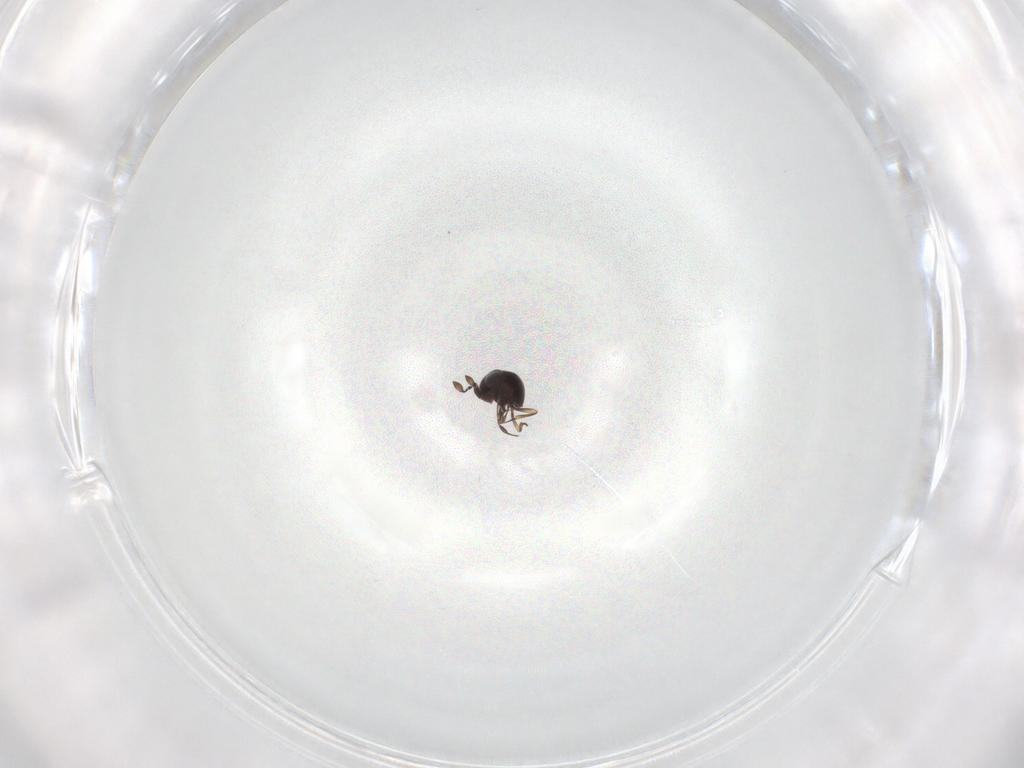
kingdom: Animalia
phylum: Arthropoda
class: Insecta
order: Hymenoptera
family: Scelionidae
